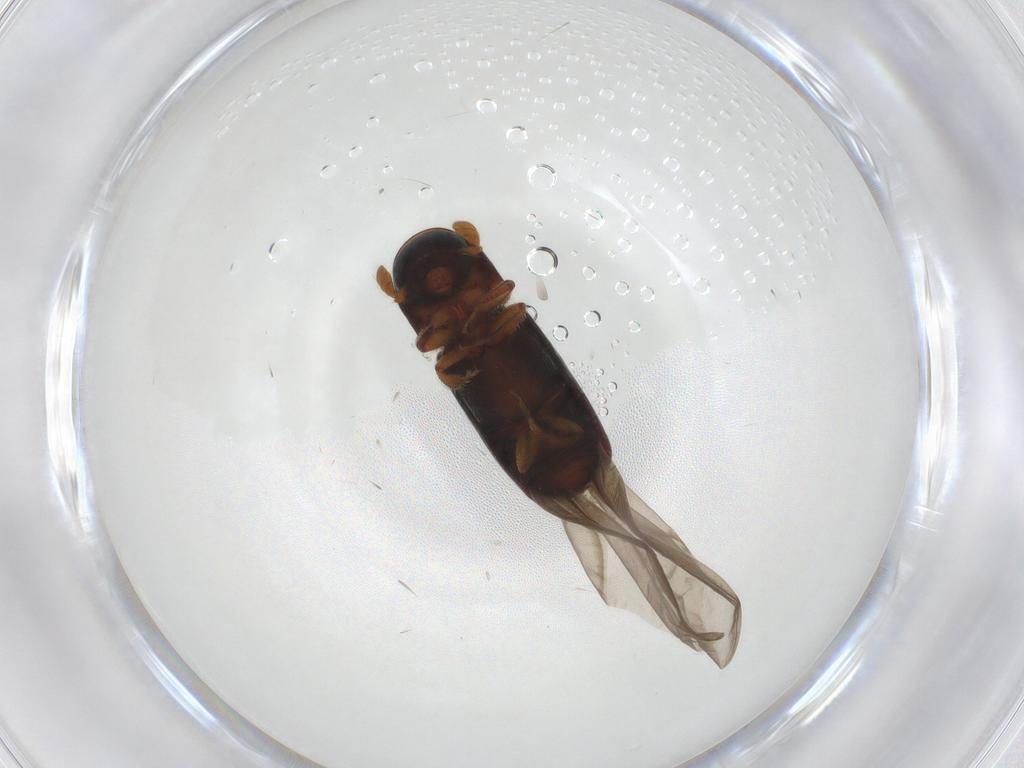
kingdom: Animalia
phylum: Arthropoda
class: Insecta
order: Coleoptera
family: Curculionidae
